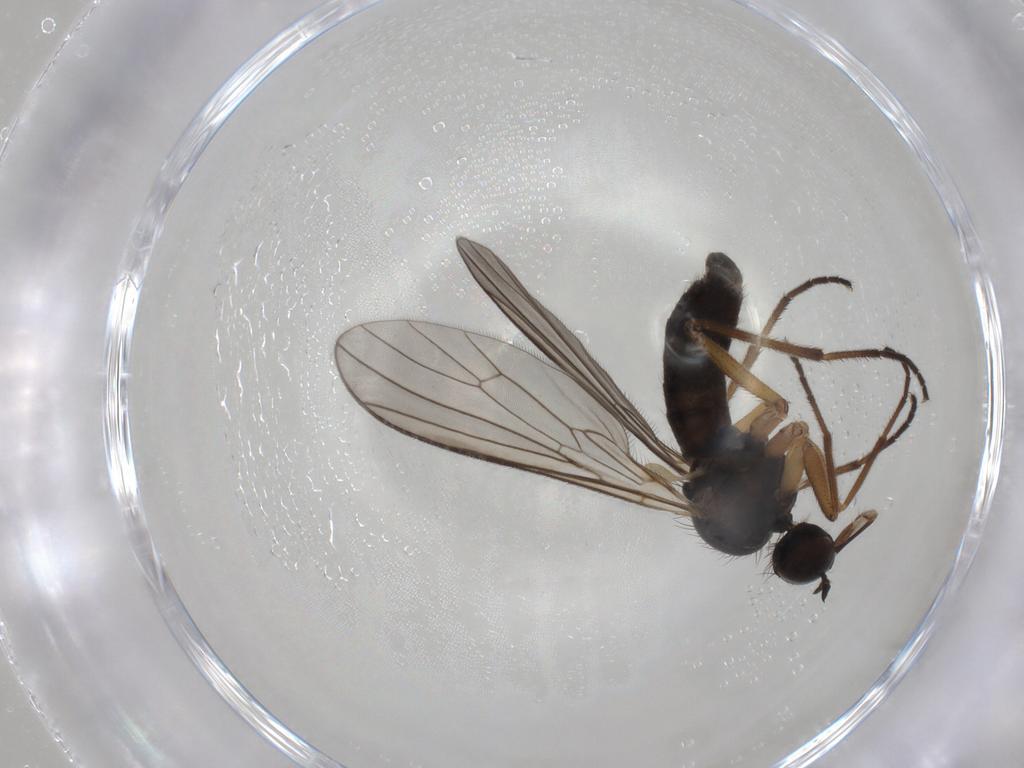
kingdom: Animalia
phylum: Arthropoda
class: Insecta
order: Diptera
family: Empididae
